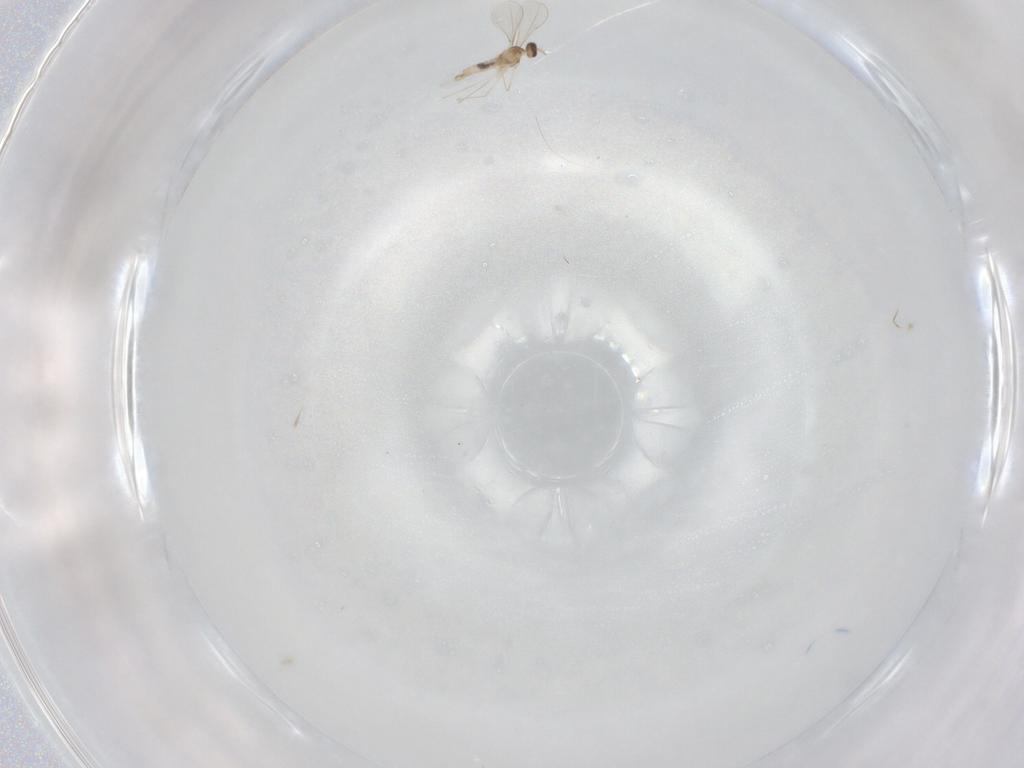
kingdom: Animalia
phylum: Arthropoda
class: Insecta
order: Diptera
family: Cecidomyiidae
